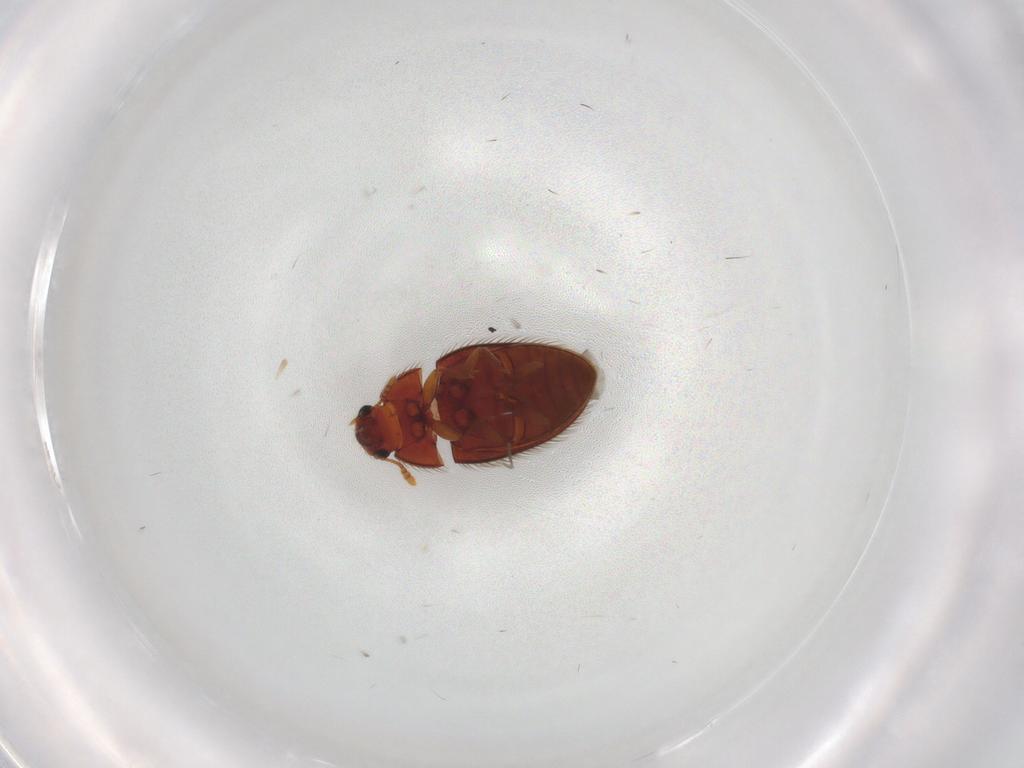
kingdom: Animalia
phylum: Arthropoda
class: Insecta
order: Coleoptera
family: Biphyllidae
